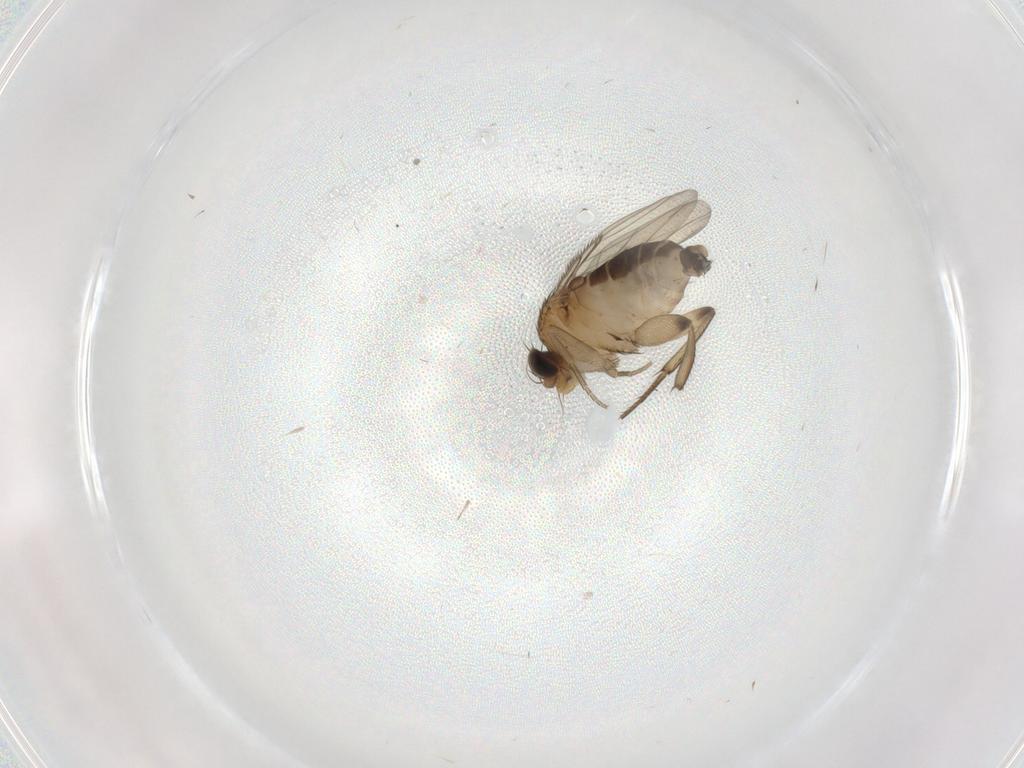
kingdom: Animalia
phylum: Arthropoda
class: Insecta
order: Diptera
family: Phoridae
